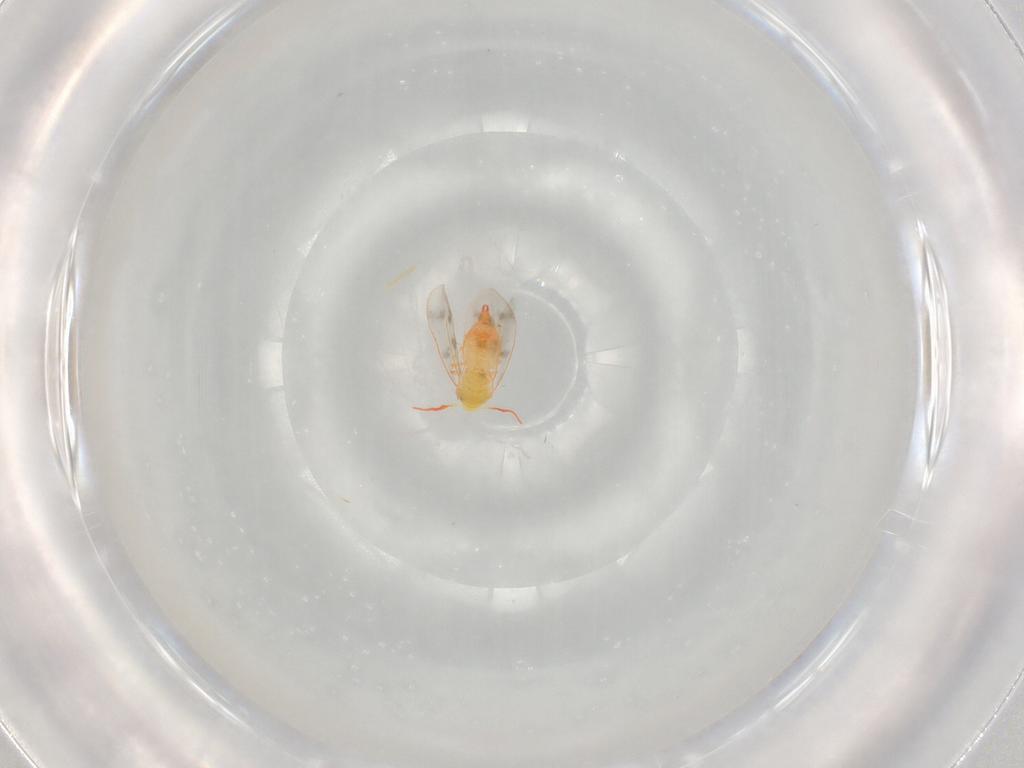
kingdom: Animalia
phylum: Arthropoda
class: Insecta
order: Hemiptera
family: Aleyrodidae
